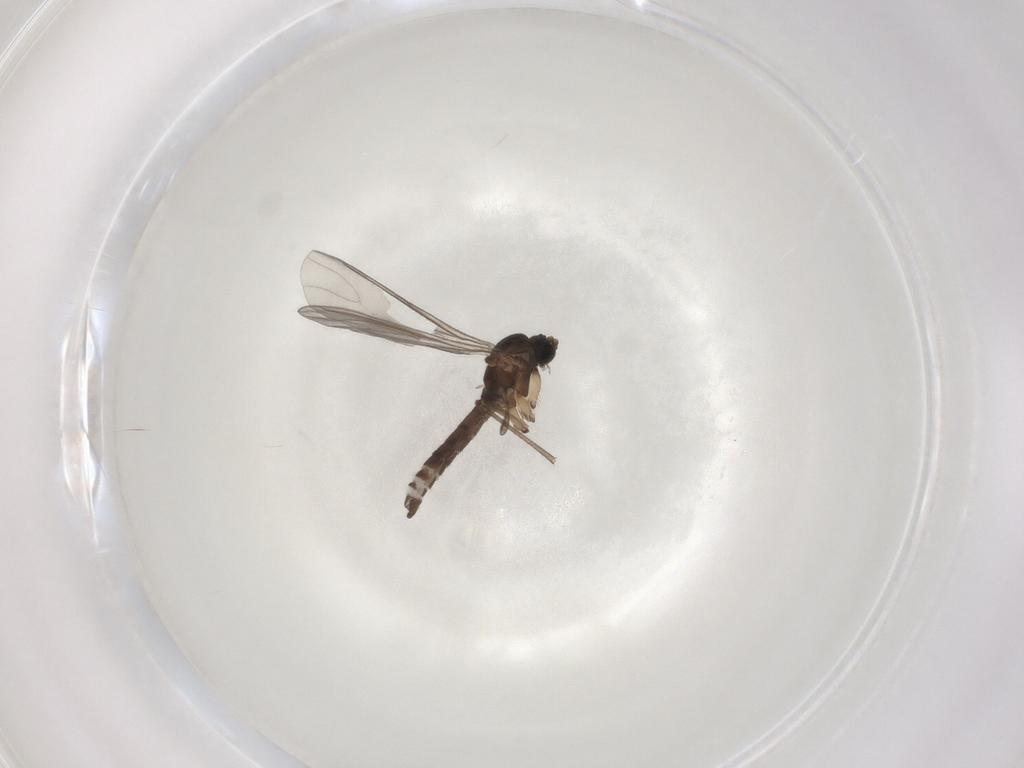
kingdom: Animalia
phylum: Arthropoda
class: Insecta
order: Diptera
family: Sciaridae
